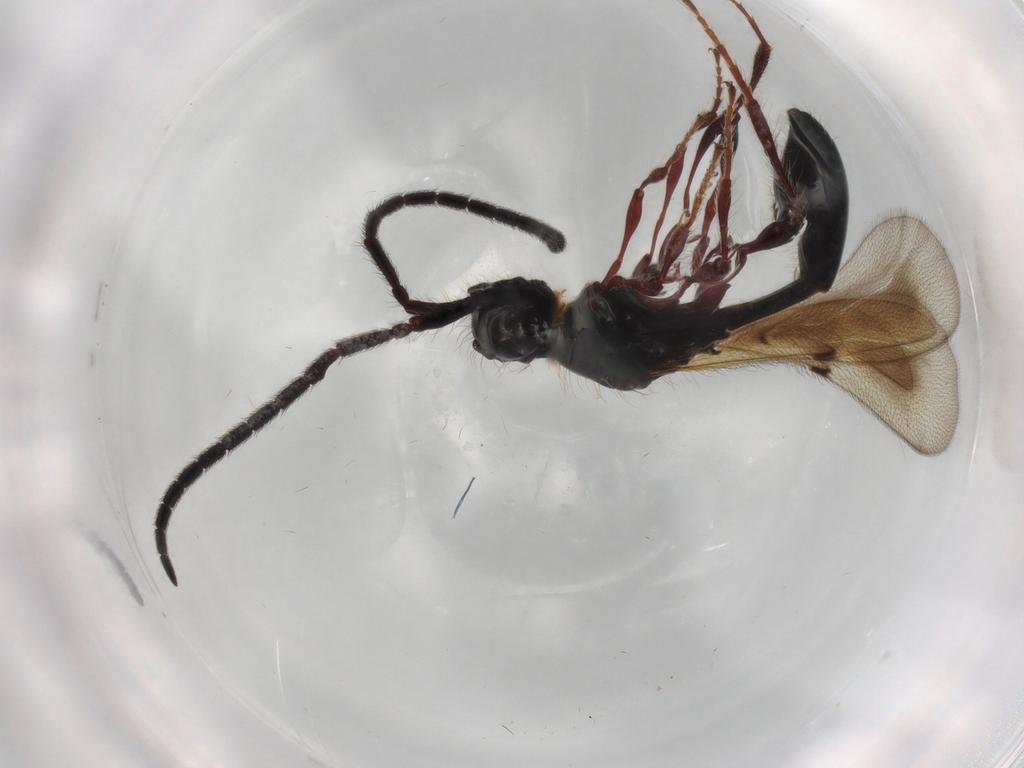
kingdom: Animalia
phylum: Arthropoda
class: Insecta
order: Hymenoptera
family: Diapriidae
